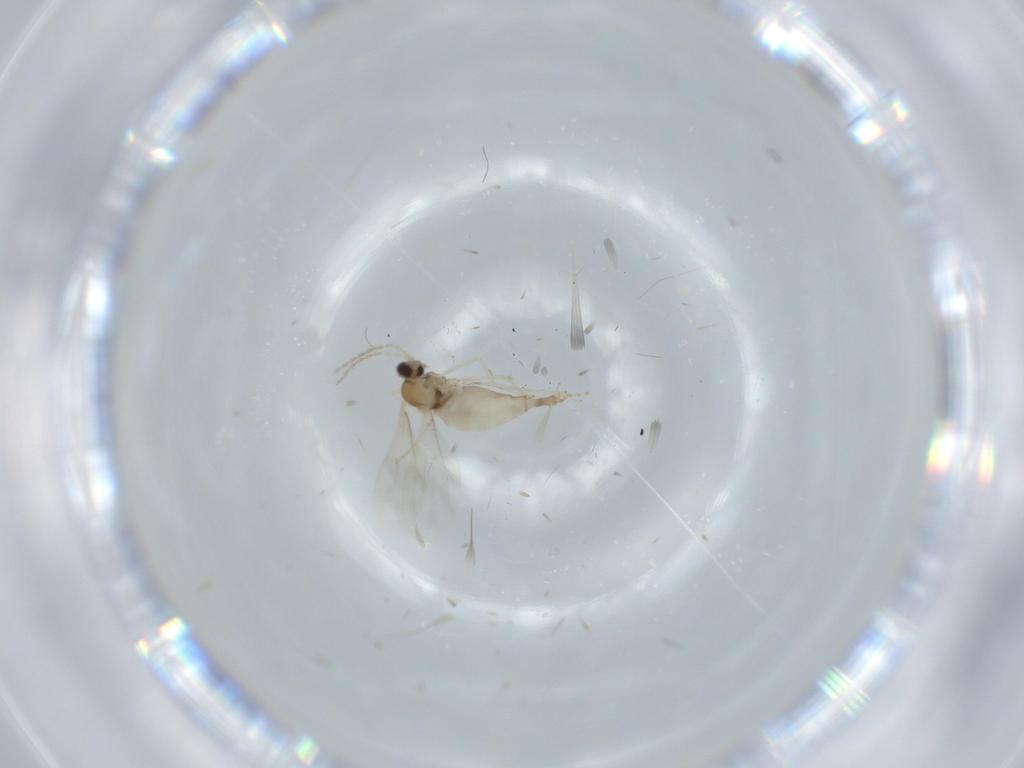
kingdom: Animalia
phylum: Arthropoda
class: Insecta
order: Diptera
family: Dolichopodidae
